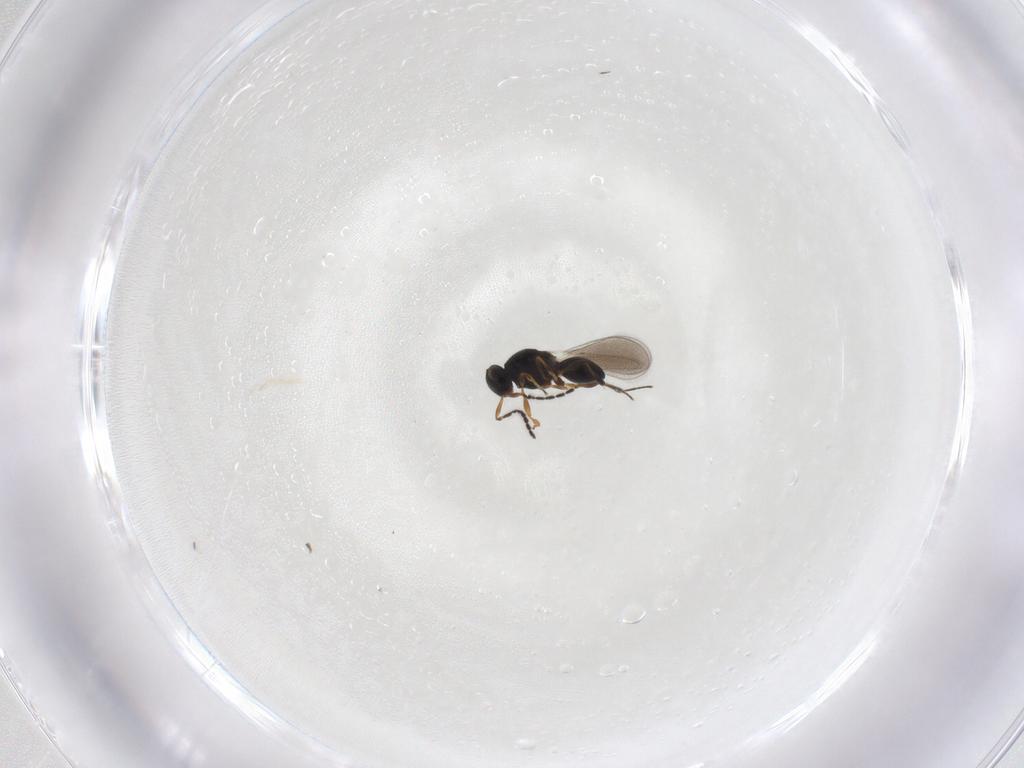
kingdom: Animalia
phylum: Arthropoda
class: Insecta
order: Hymenoptera
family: Platygastridae
